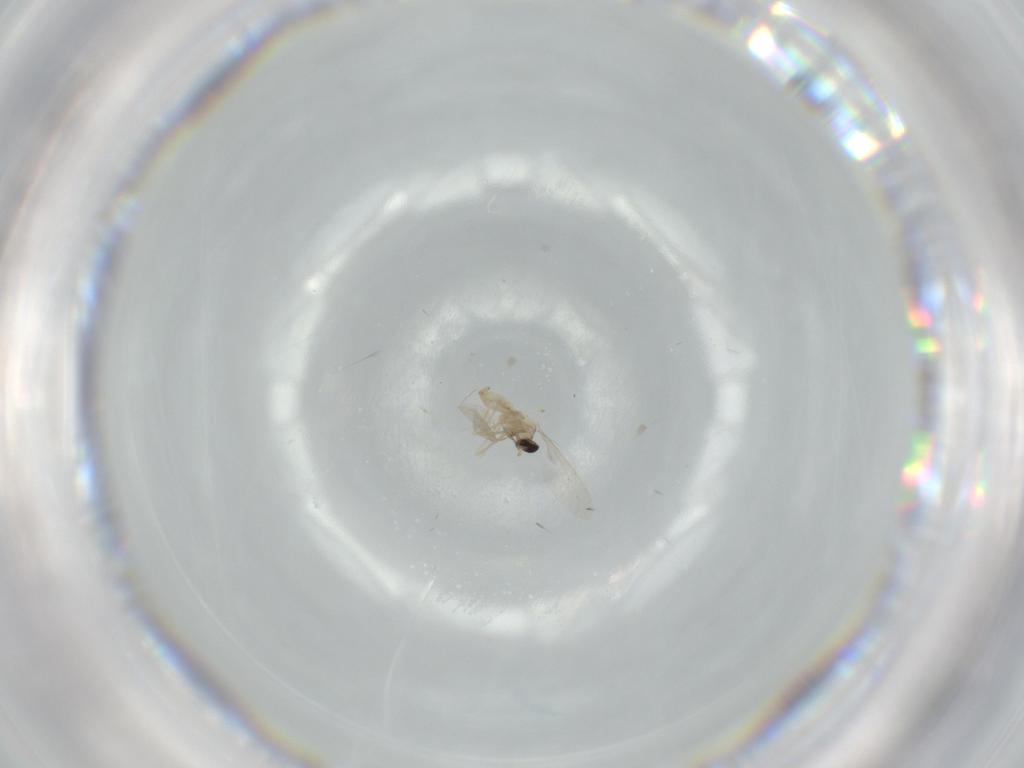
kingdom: Animalia
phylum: Arthropoda
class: Insecta
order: Diptera
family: Cecidomyiidae
